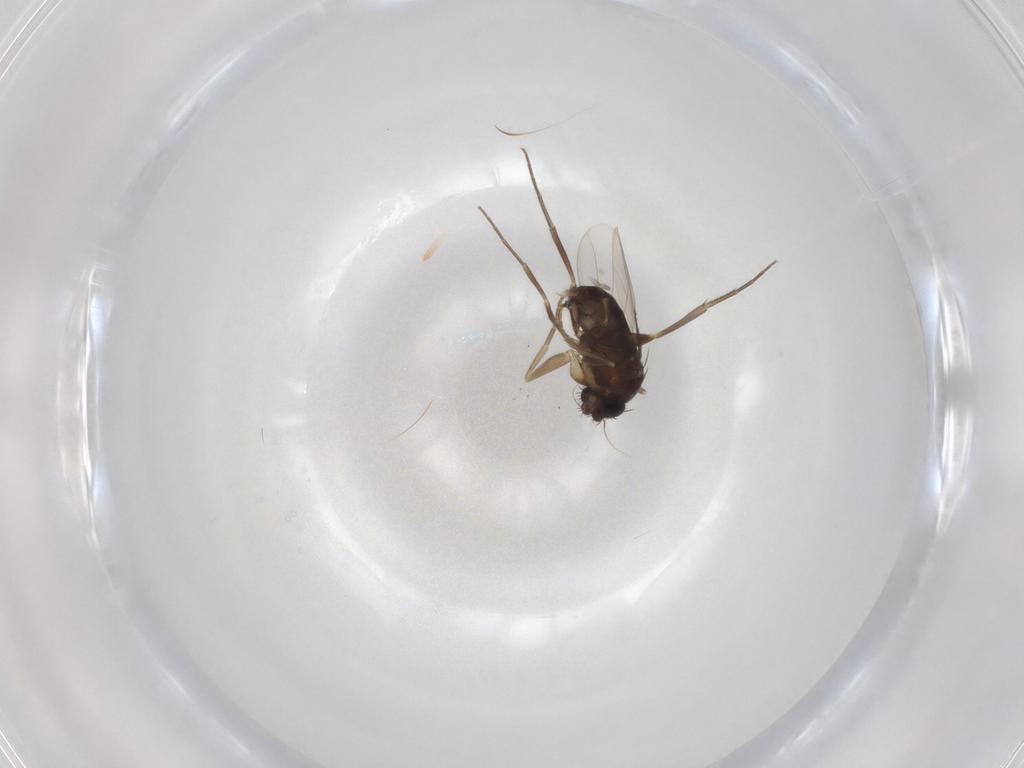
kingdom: Animalia
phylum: Arthropoda
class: Insecta
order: Diptera
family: Phoridae
